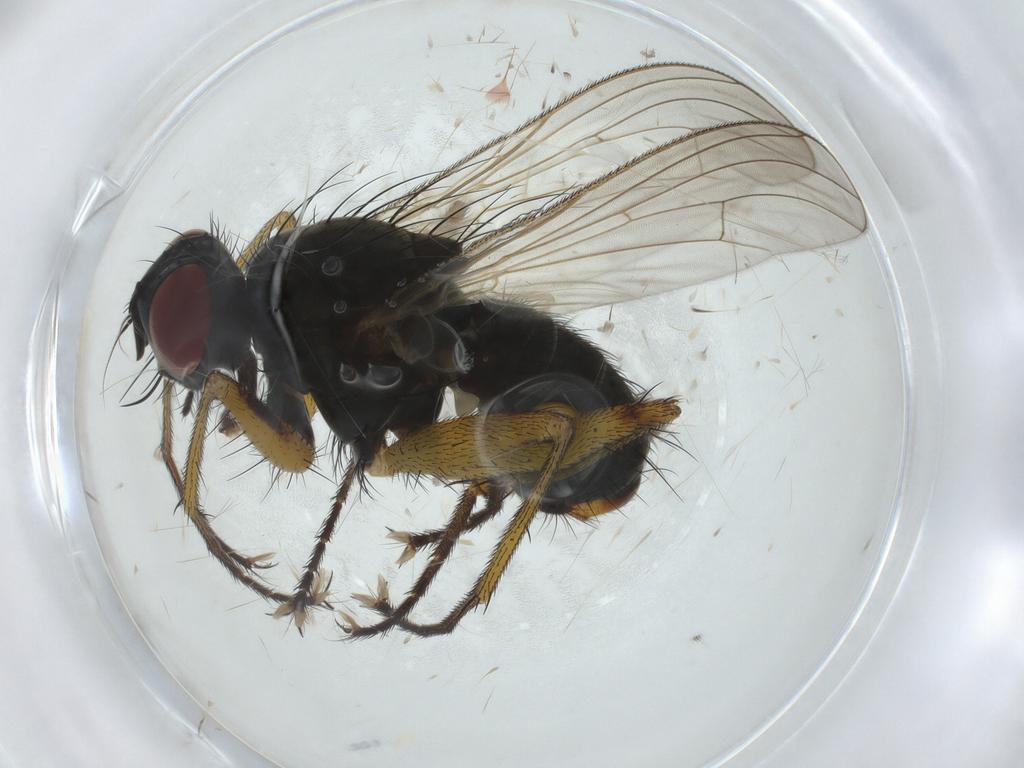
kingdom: Animalia
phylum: Arthropoda
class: Insecta
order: Diptera
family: Muscidae
